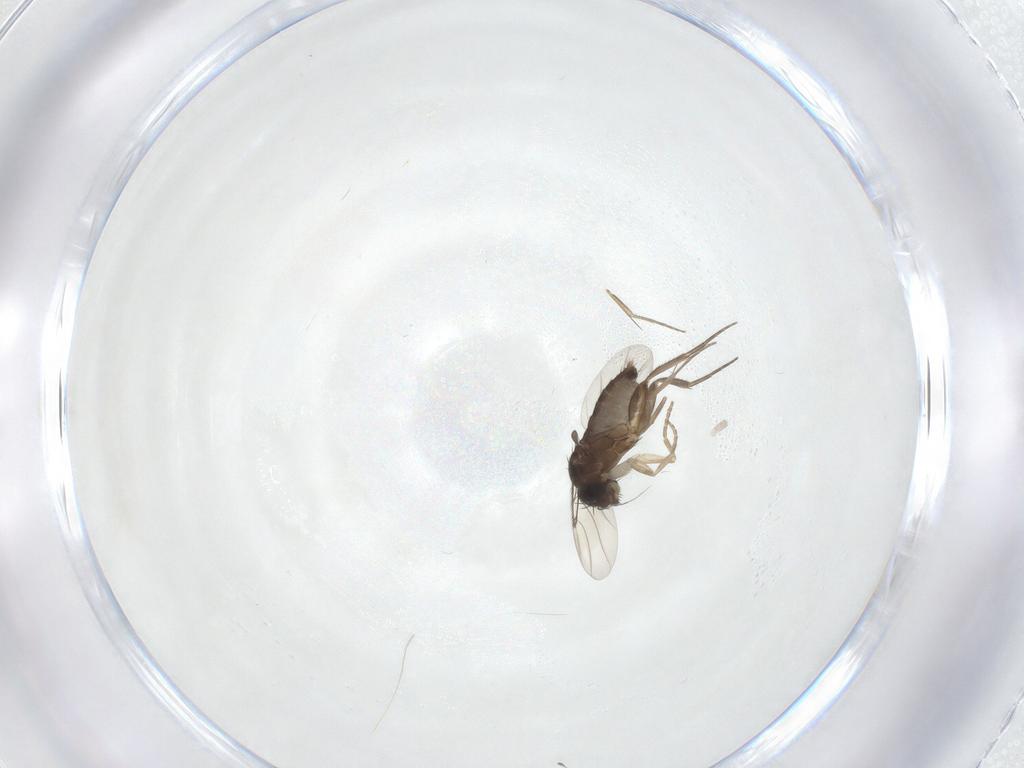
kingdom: Animalia
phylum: Arthropoda
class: Insecta
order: Diptera
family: Phoridae
